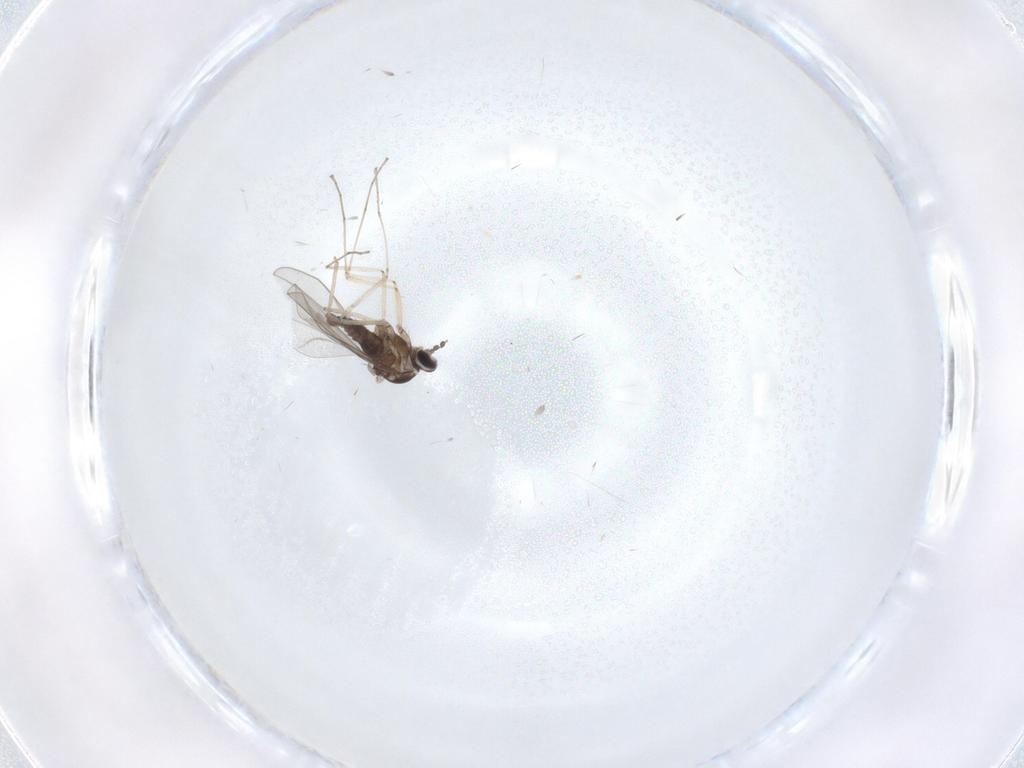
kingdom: Animalia
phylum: Arthropoda
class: Insecta
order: Diptera
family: Cecidomyiidae
